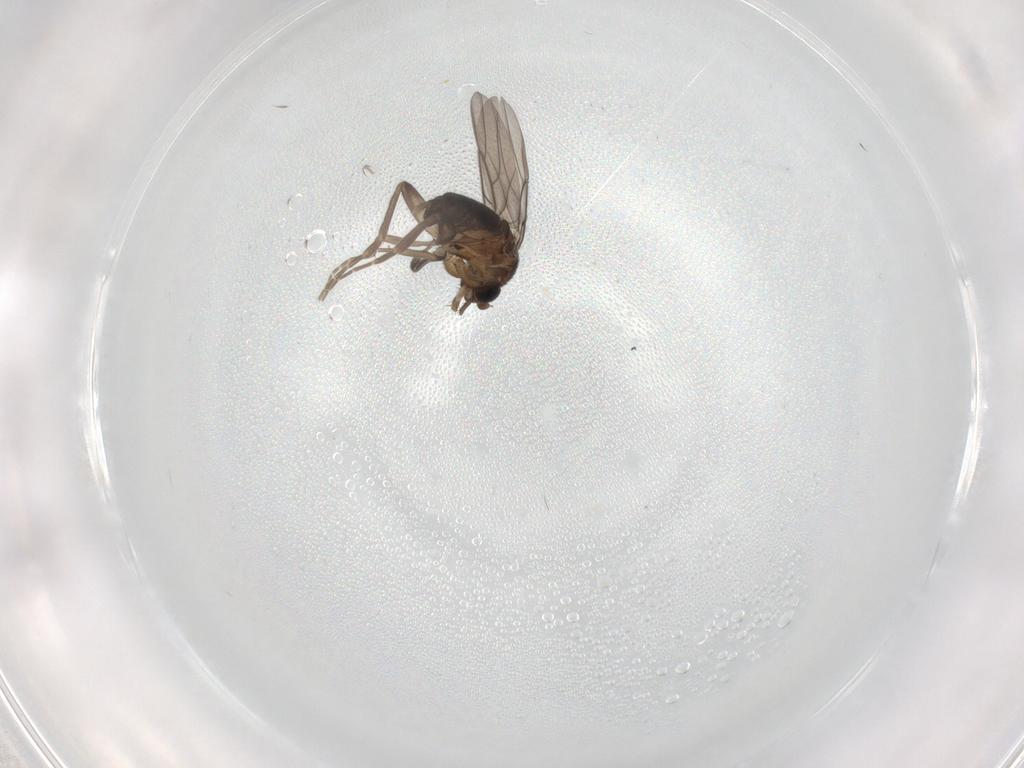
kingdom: Animalia
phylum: Arthropoda
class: Insecta
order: Diptera
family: Phoridae
